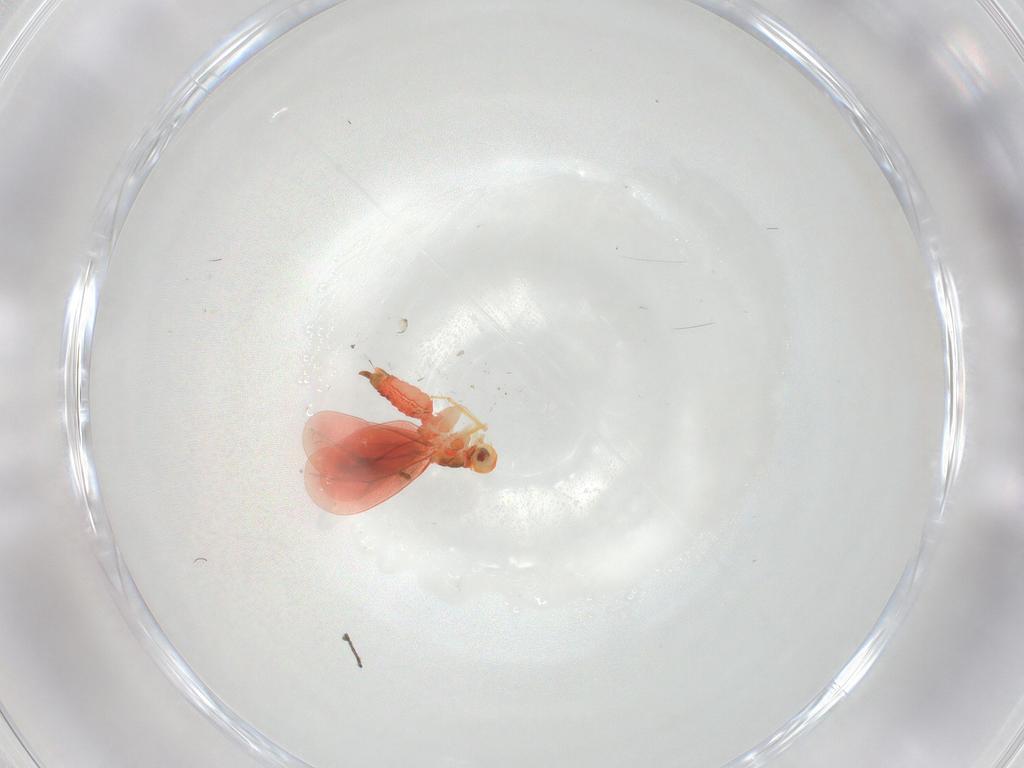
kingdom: Animalia
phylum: Arthropoda
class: Insecta
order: Hemiptera
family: Aleyrodidae
